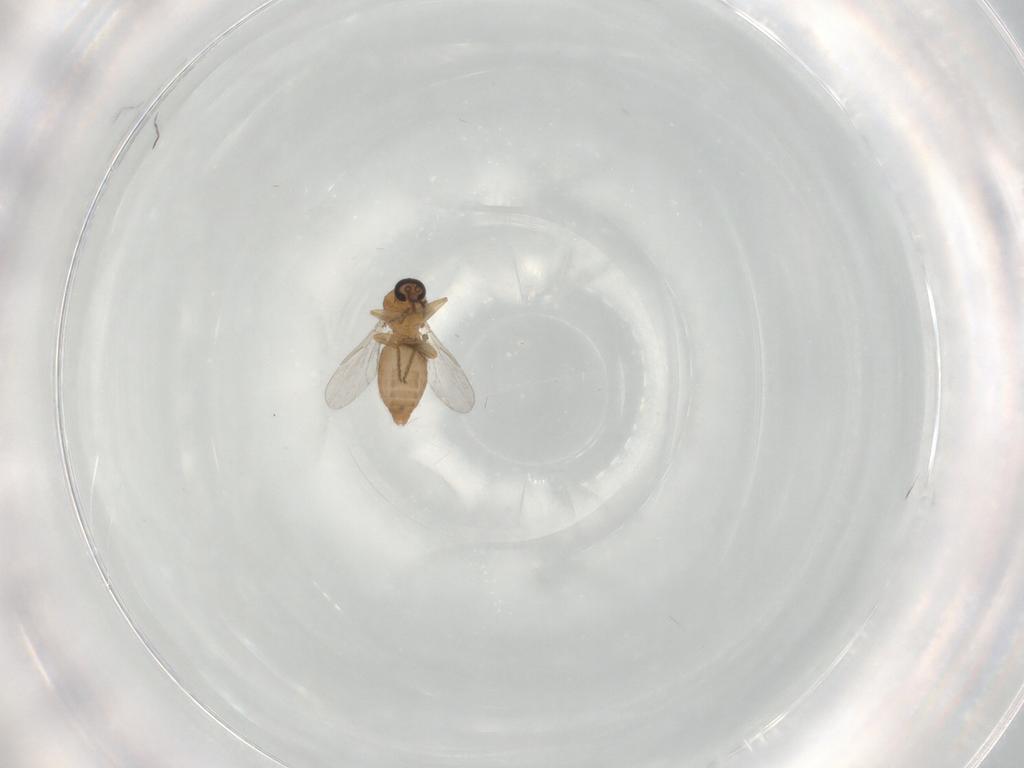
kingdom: Animalia
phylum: Arthropoda
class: Insecta
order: Diptera
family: Ceratopogonidae
